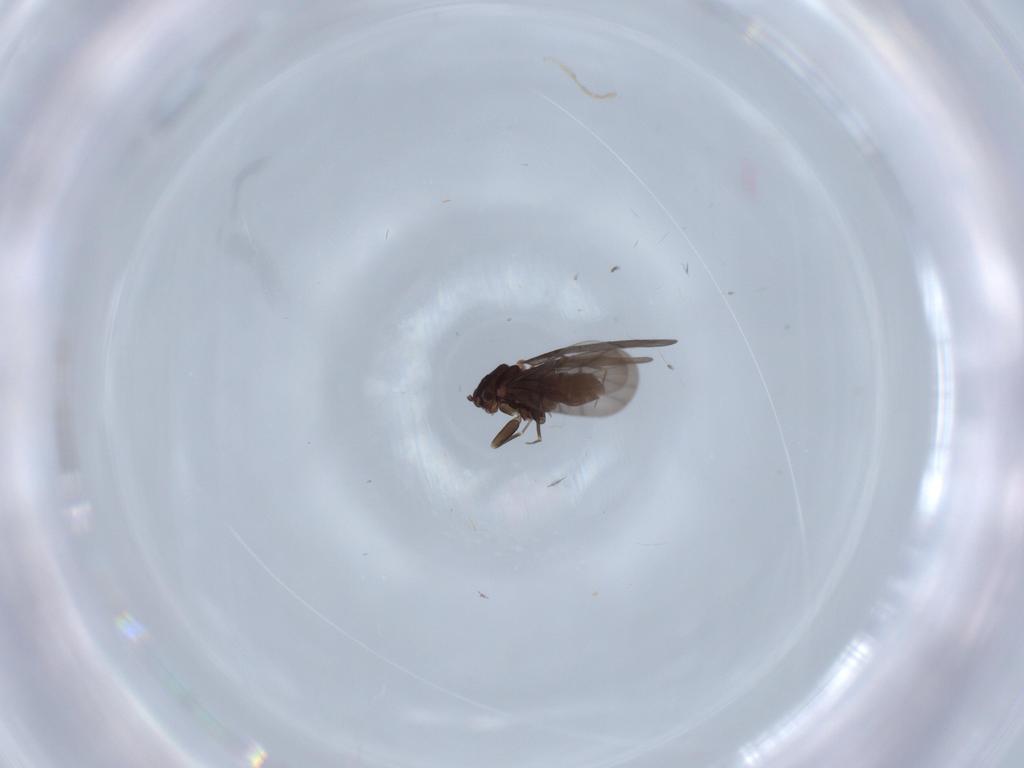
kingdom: Animalia
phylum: Arthropoda
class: Insecta
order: Psocodea
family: Lepidopsocidae
